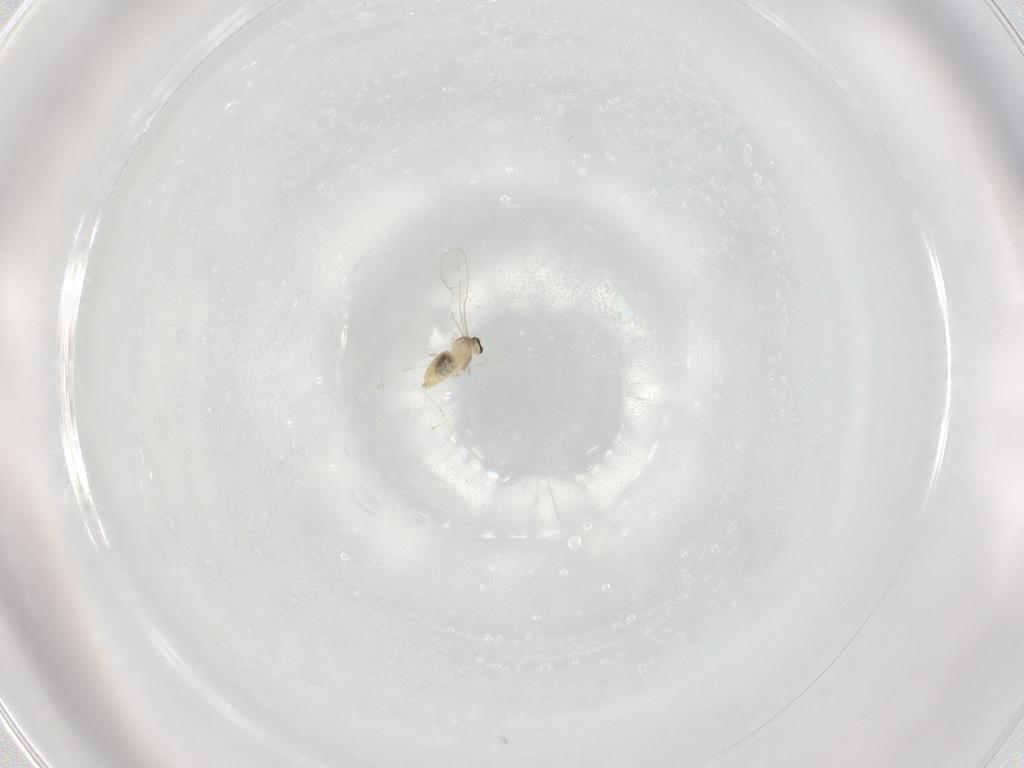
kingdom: Animalia
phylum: Arthropoda
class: Insecta
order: Diptera
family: Cecidomyiidae
